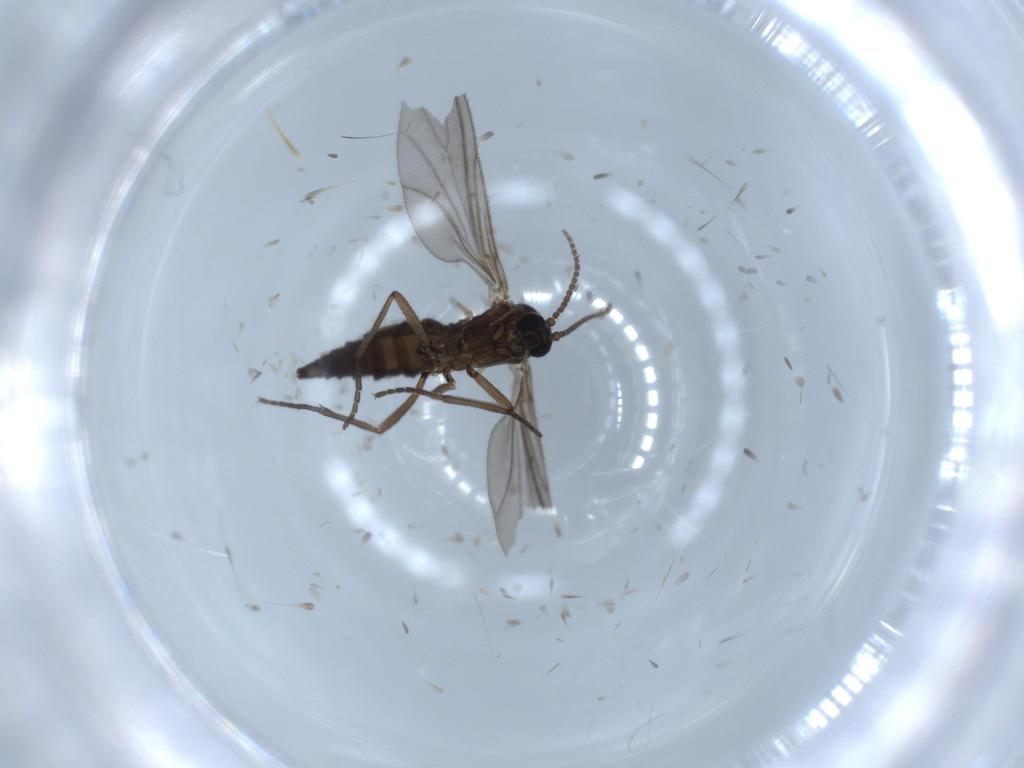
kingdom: Animalia
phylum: Arthropoda
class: Insecta
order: Diptera
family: Sciaridae
